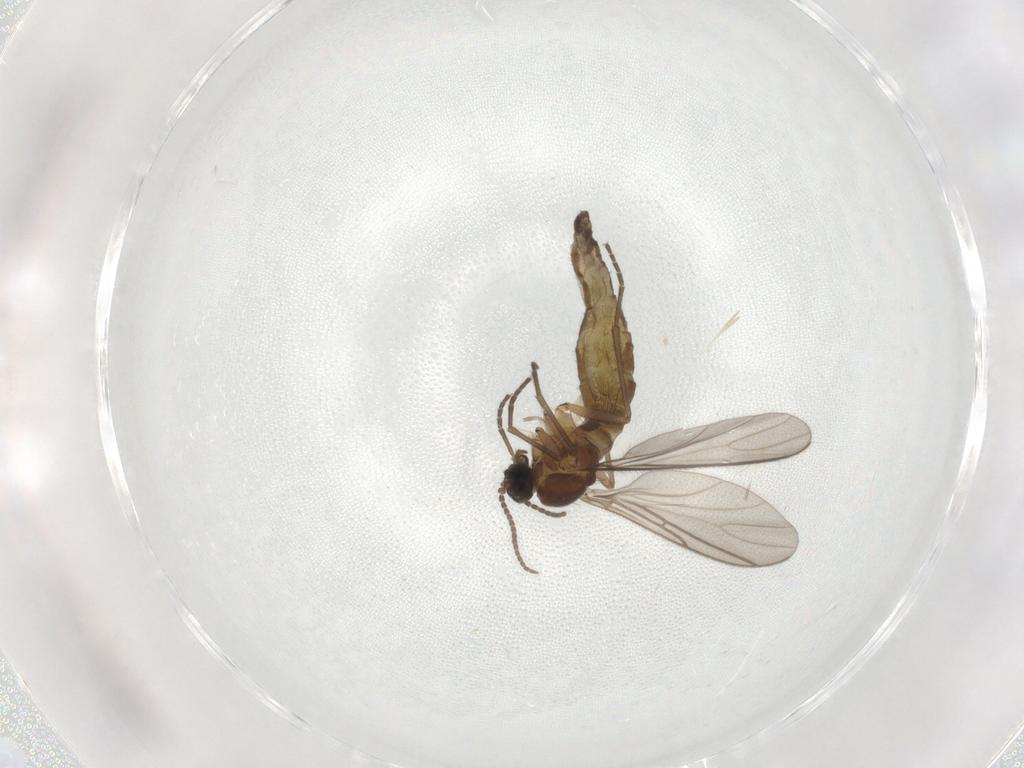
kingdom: Animalia
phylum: Arthropoda
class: Insecta
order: Diptera
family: Sciaridae
